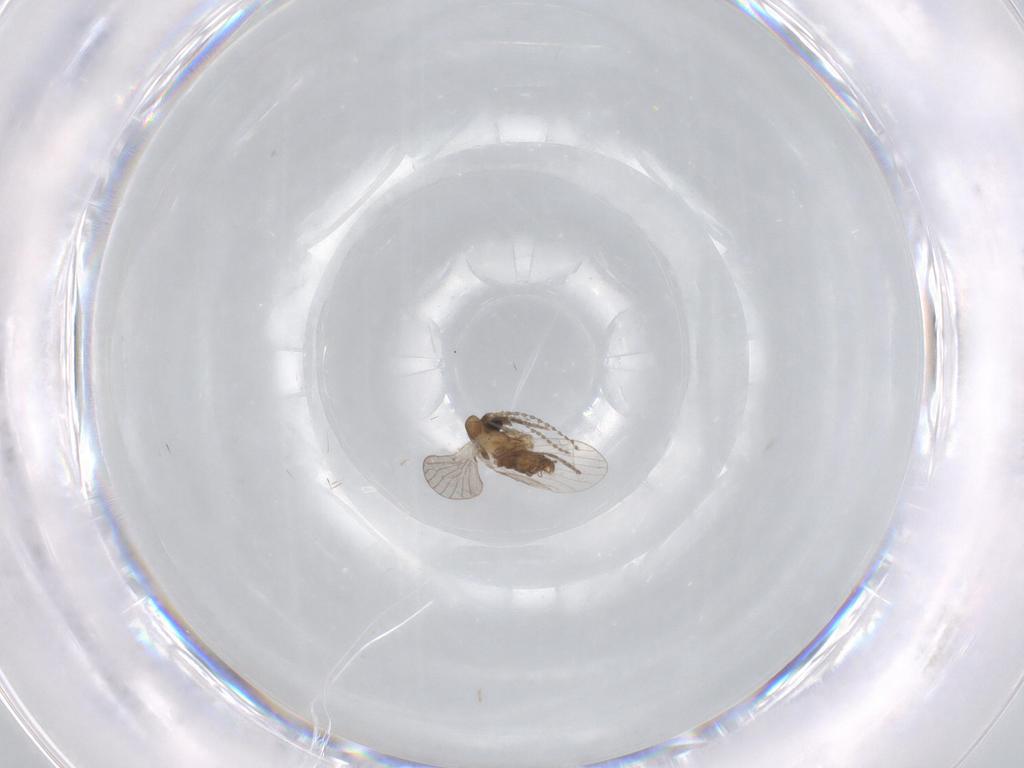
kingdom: Animalia
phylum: Arthropoda
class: Insecta
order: Diptera
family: Sciaridae
